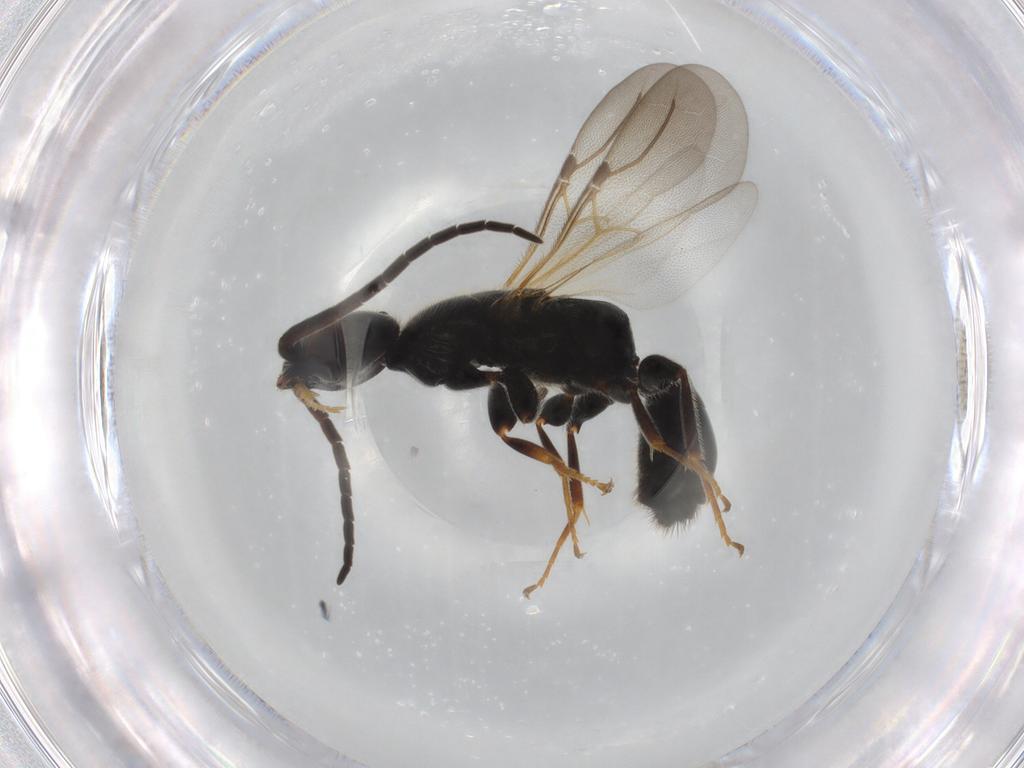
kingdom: Animalia
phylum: Arthropoda
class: Insecta
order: Hymenoptera
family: Bethylidae
